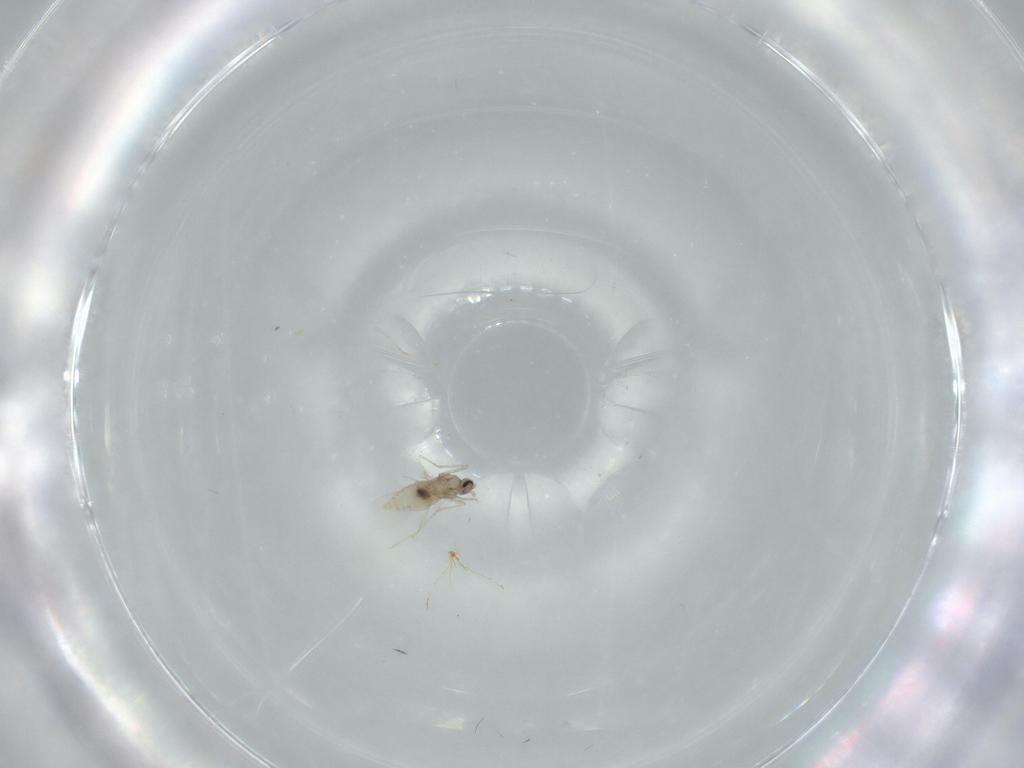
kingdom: Animalia
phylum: Arthropoda
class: Insecta
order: Diptera
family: Cecidomyiidae
